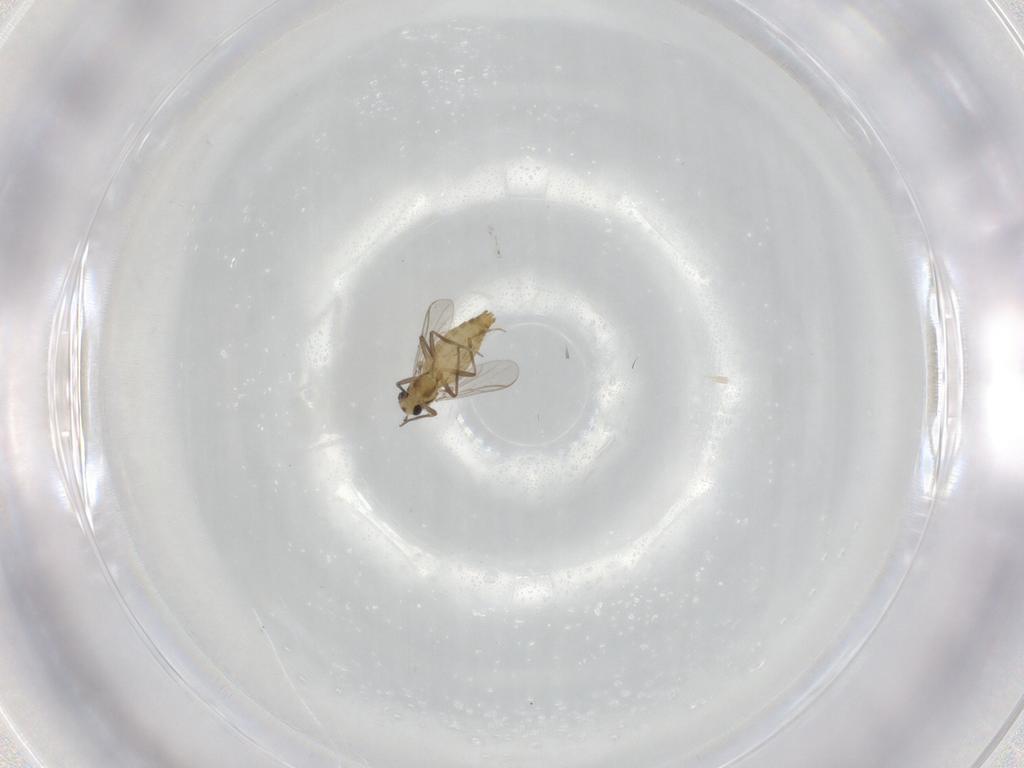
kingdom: Animalia
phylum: Arthropoda
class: Insecta
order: Diptera
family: Chironomidae
